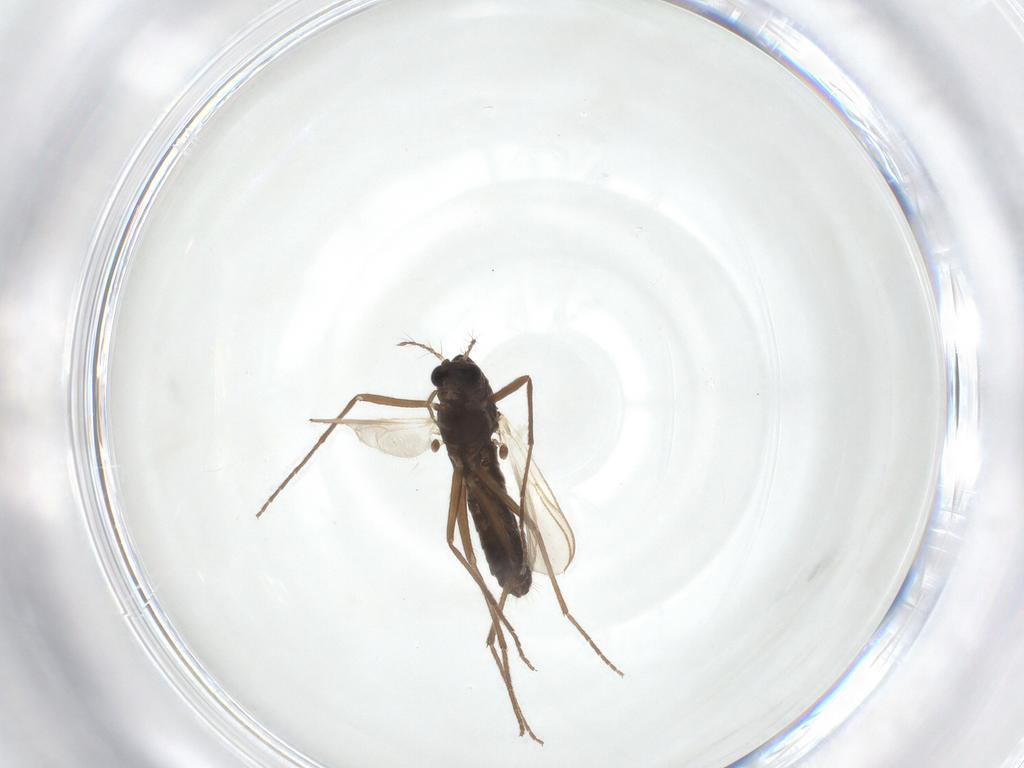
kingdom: Animalia
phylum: Arthropoda
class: Insecta
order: Diptera
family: Chironomidae
